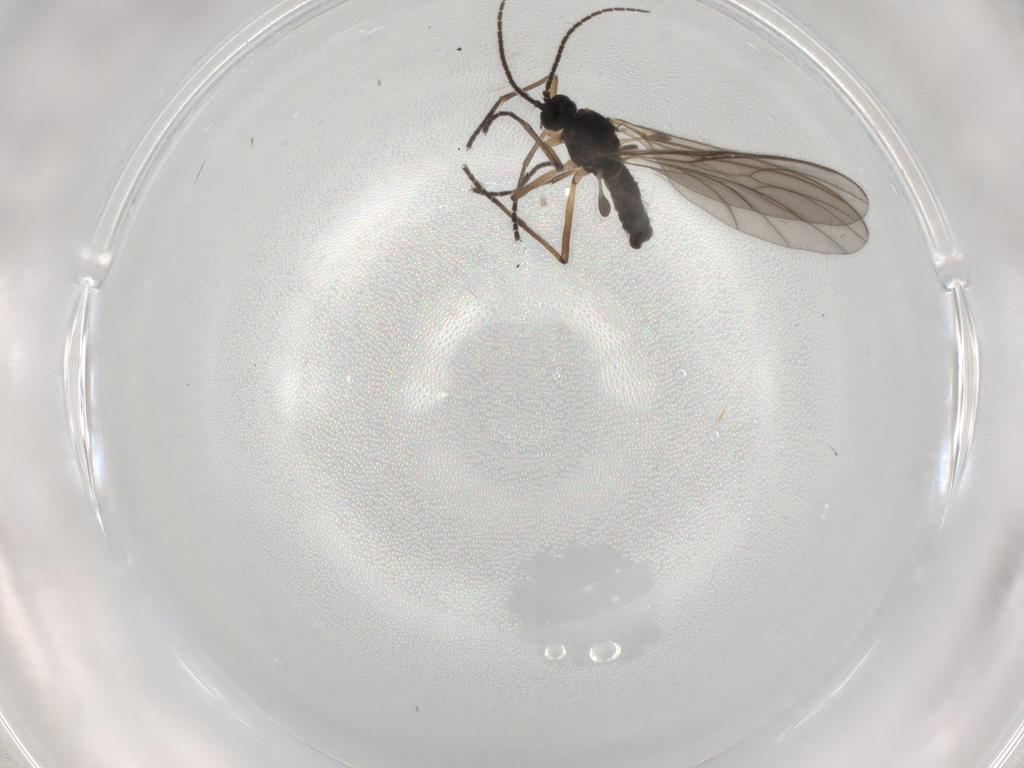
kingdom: Animalia
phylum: Arthropoda
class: Insecta
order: Diptera
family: Sciaridae
